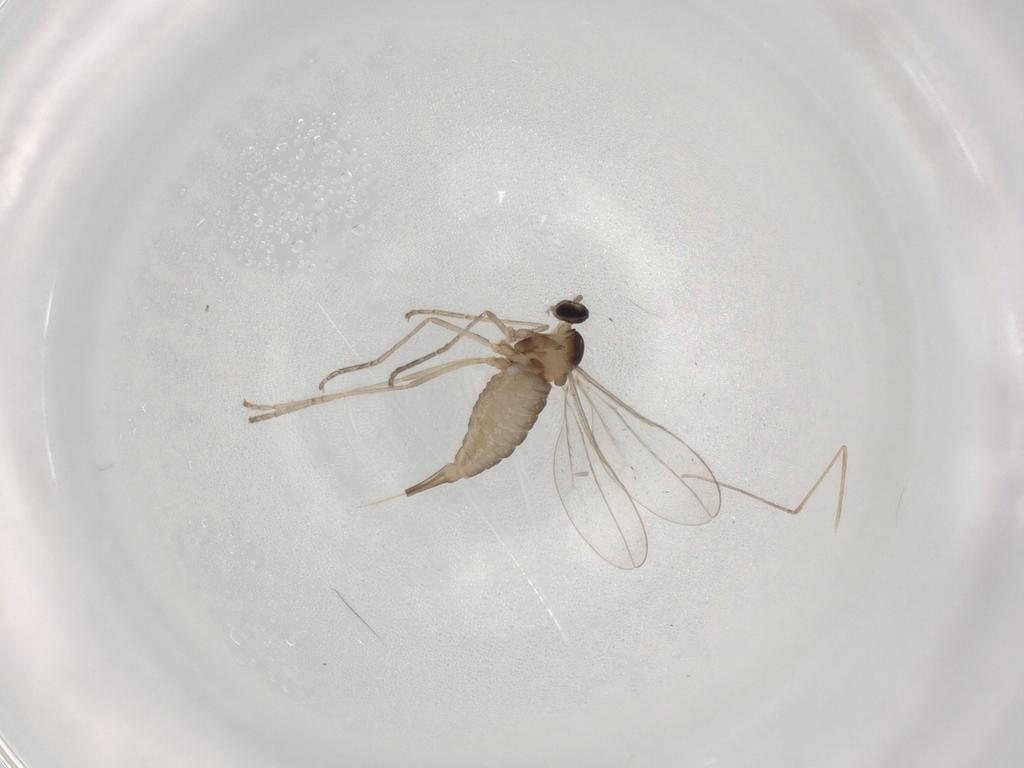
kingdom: Animalia
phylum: Arthropoda
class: Insecta
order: Diptera
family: Cecidomyiidae
